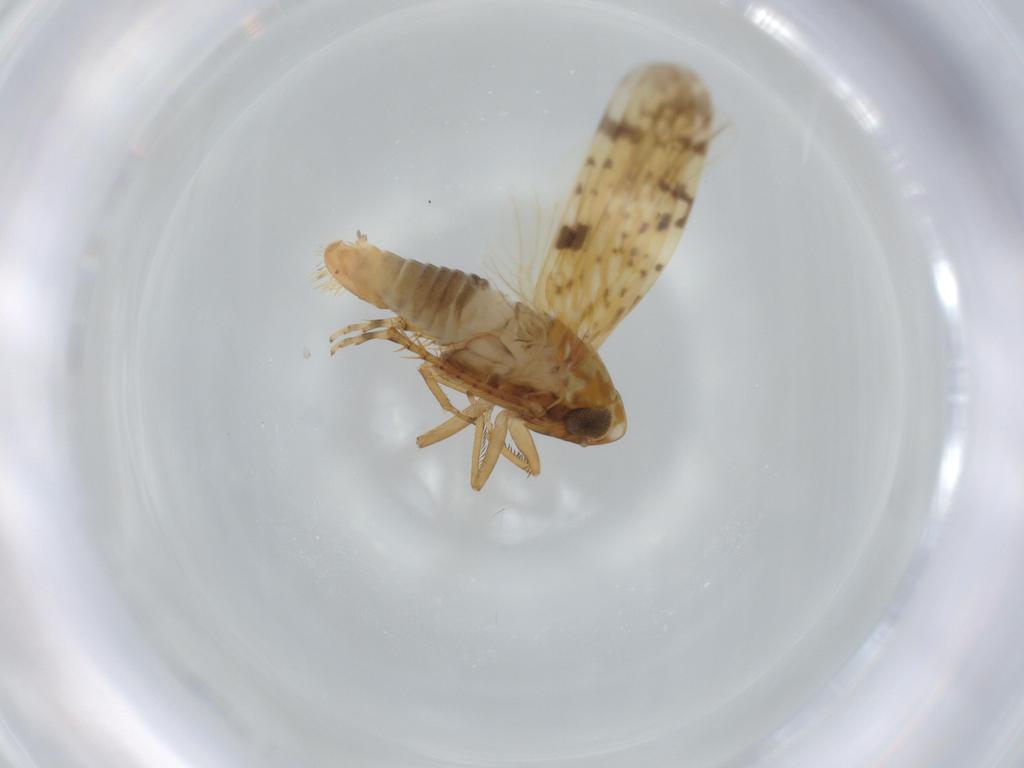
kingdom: Animalia
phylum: Arthropoda
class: Insecta
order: Hemiptera
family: Cicadellidae
